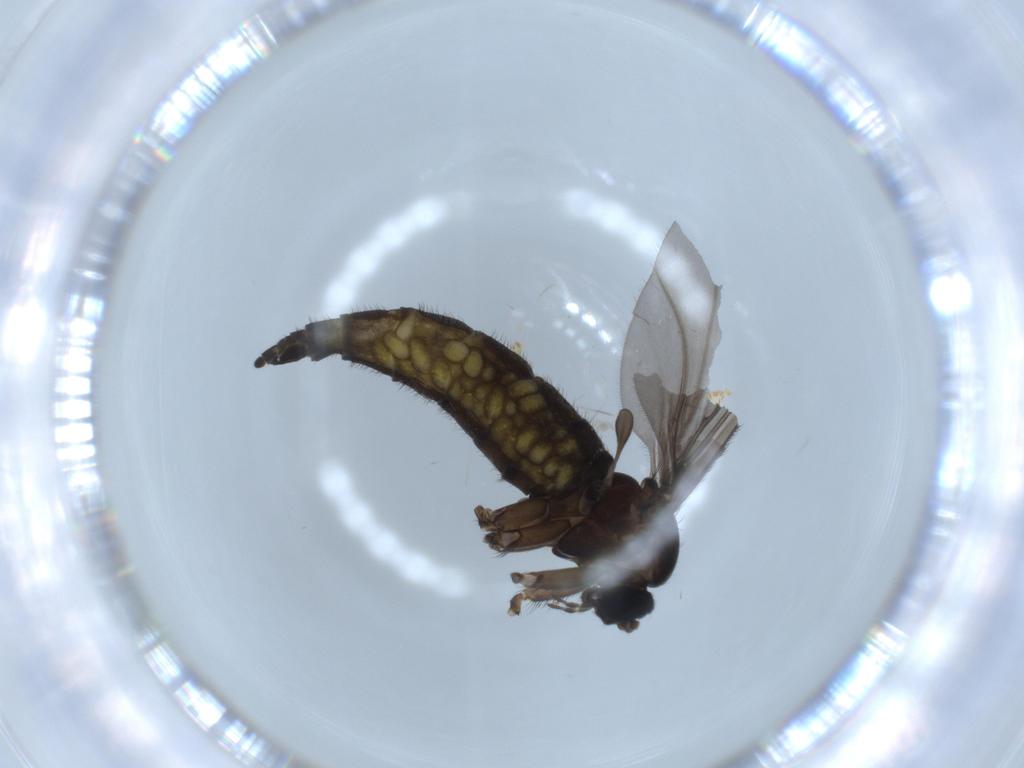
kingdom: Animalia
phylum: Arthropoda
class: Insecta
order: Diptera
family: Sciaridae
